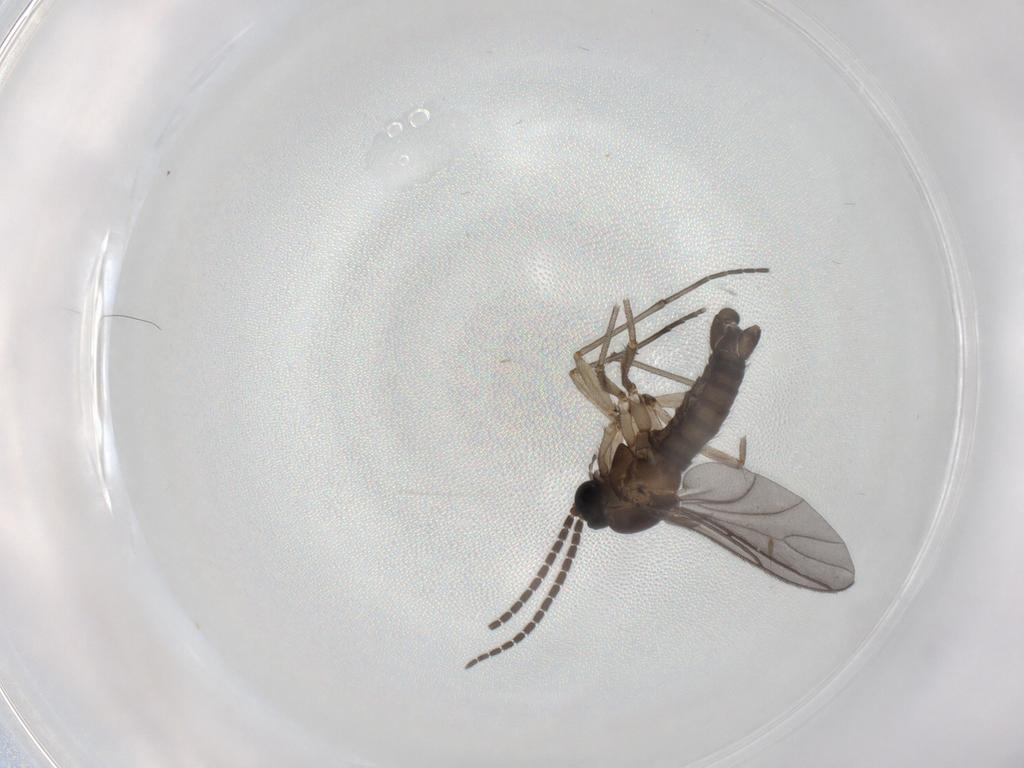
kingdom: Animalia
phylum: Arthropoda
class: Insecta
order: Diptera
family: Sciaridae
